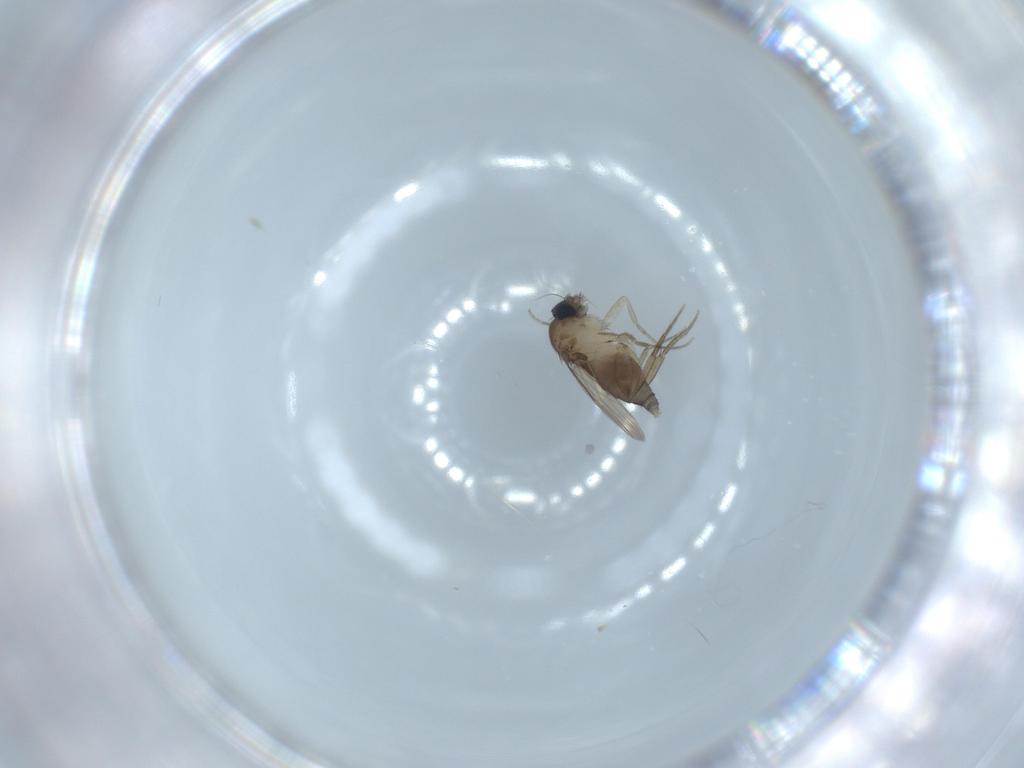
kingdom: Animalia
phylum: Arthropoda
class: Insecta
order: Diptera
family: Phoridae
